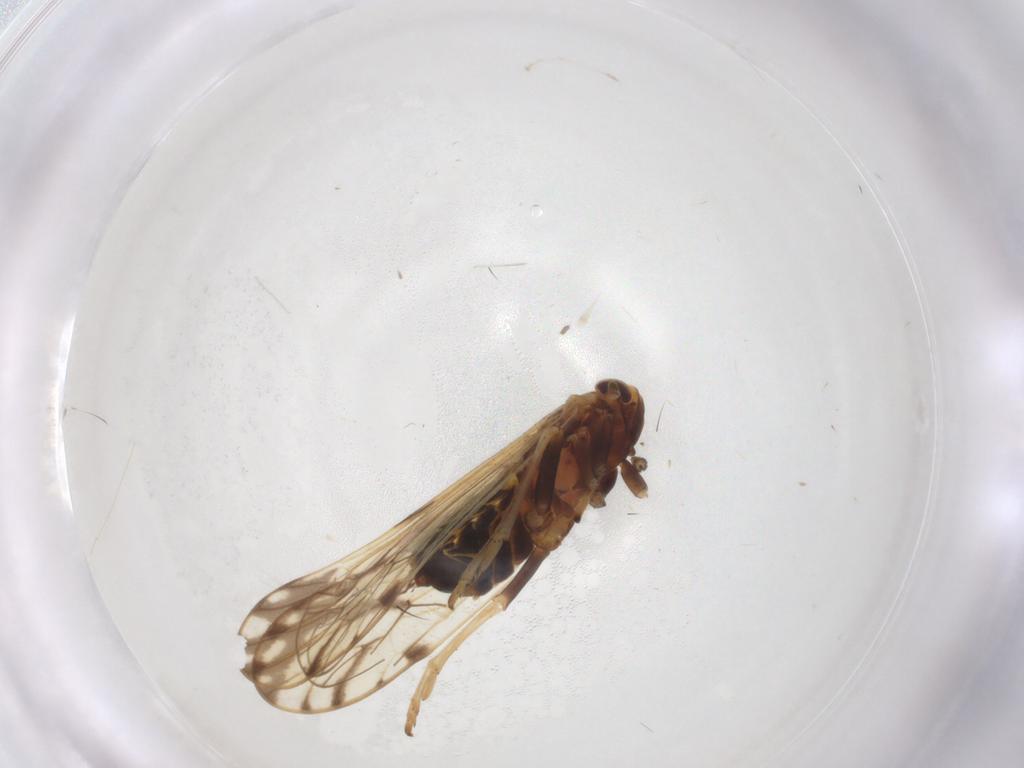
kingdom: Animalia
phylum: Arthropoda
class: Insecta
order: Hemiptera
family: Delphacidae
